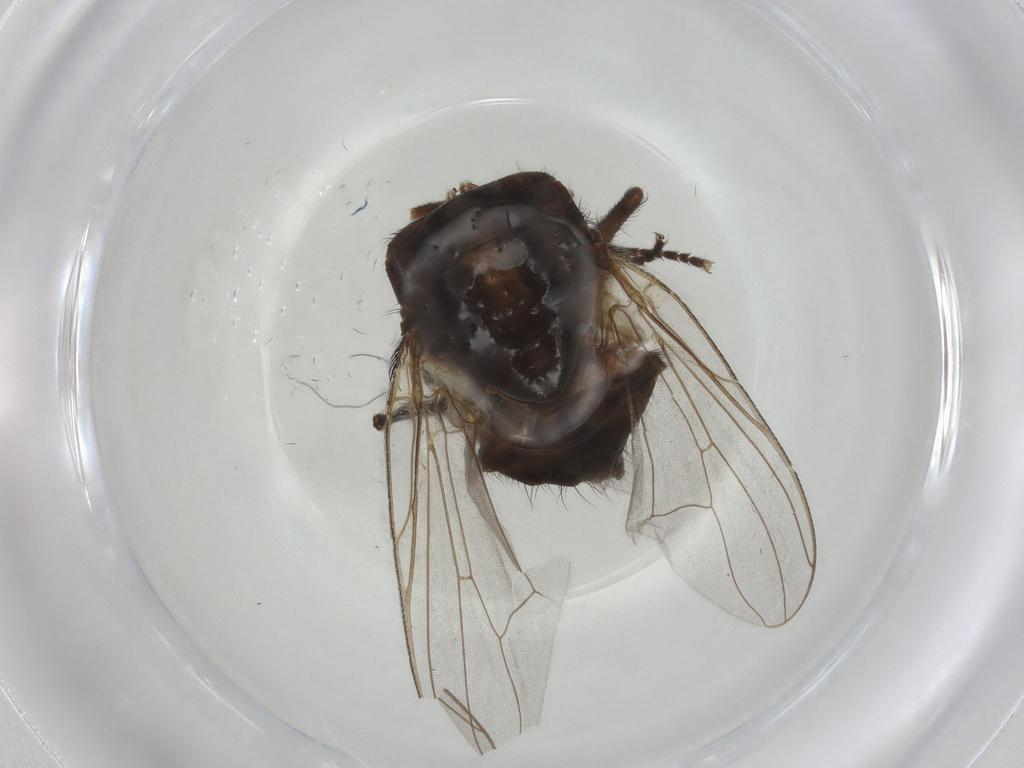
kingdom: Animalia
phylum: Arthropoda
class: Insecta
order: Diptera
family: Muscidae
